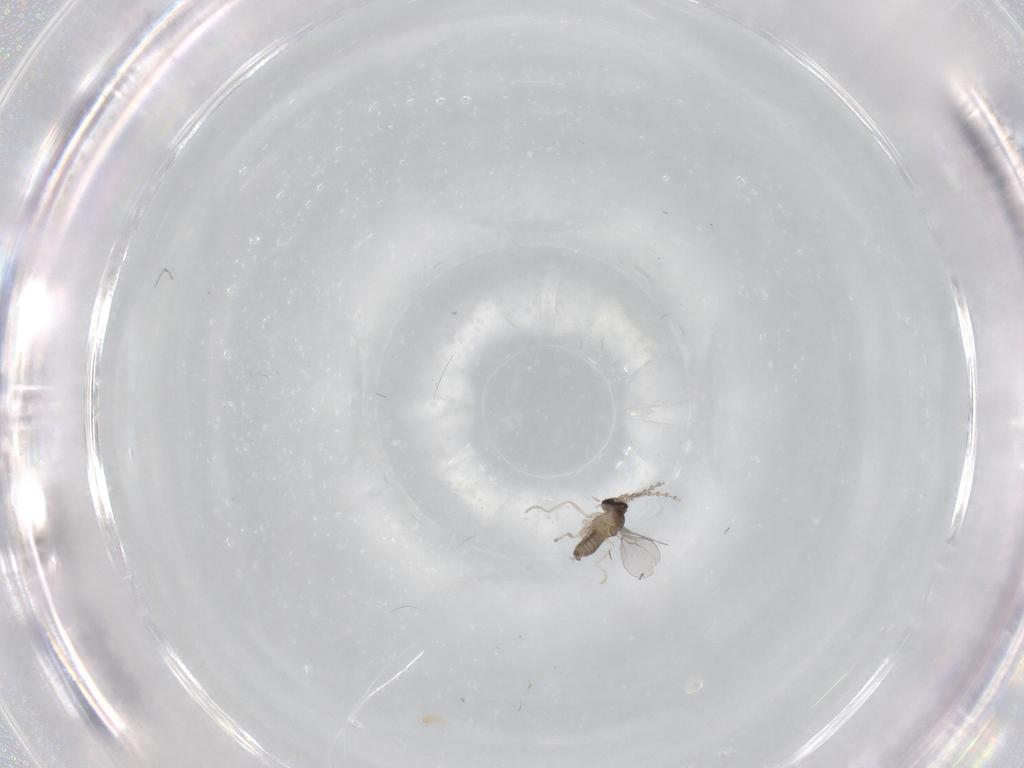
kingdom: Animalia
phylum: Arthropoda
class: Insecta
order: Diptera
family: Cecidomyiidae
